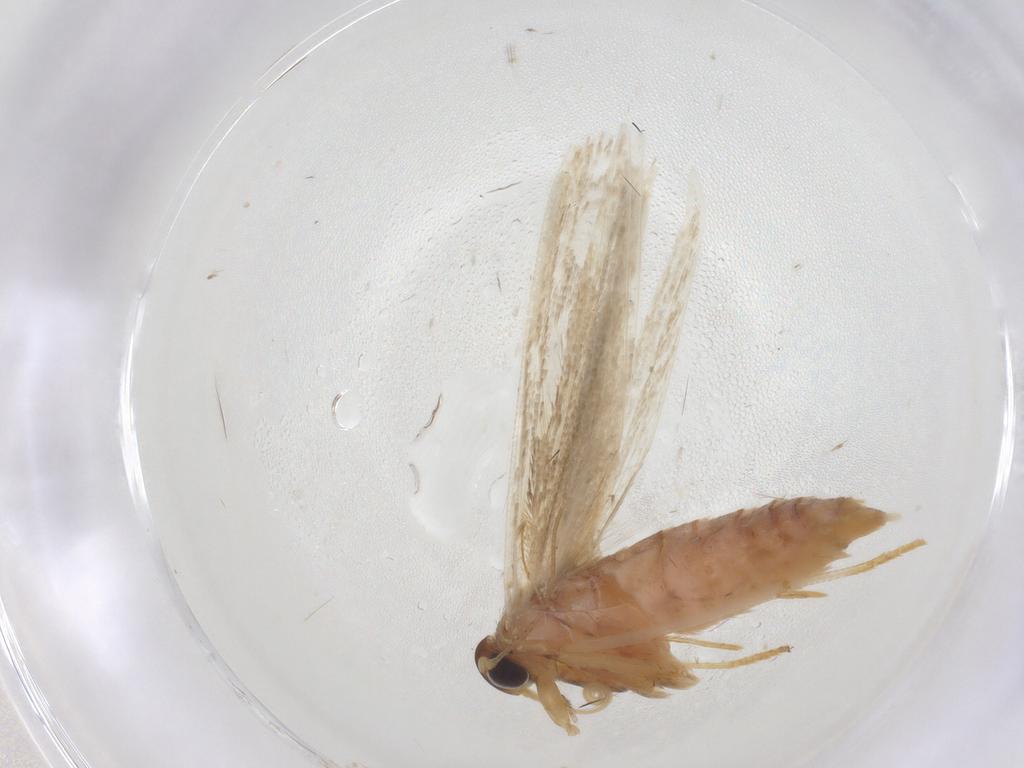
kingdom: Animalia
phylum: Arthropoda
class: Insecta
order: Lepidoptera
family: Blastobasidae
